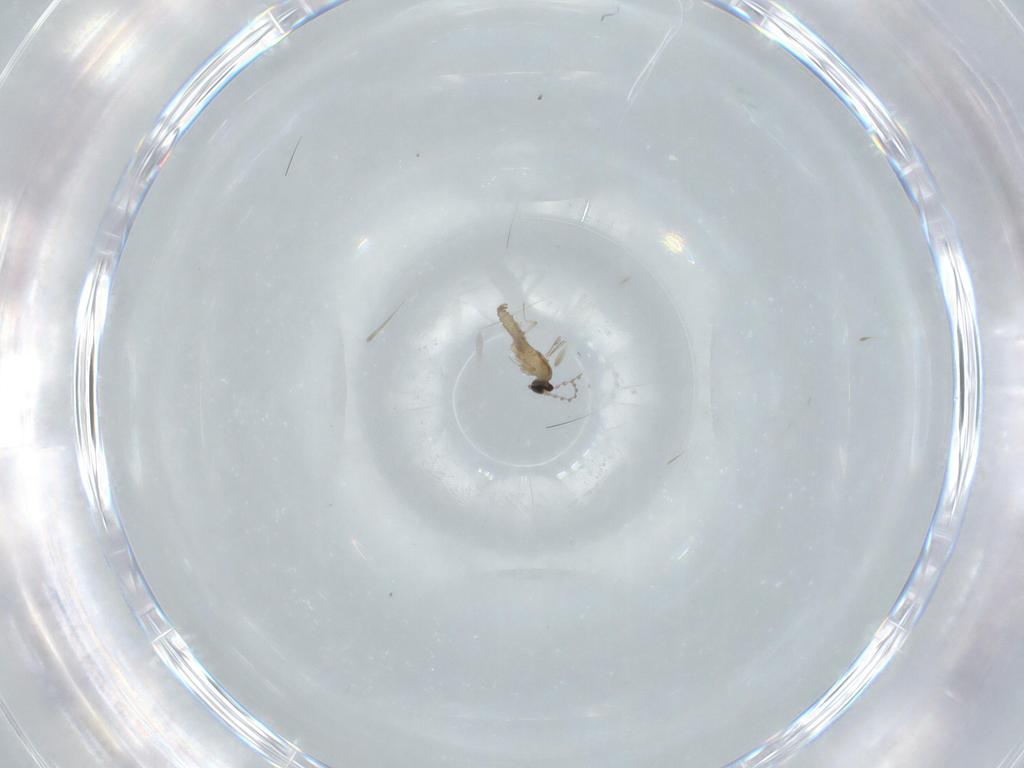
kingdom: Animalia
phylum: Arthropoda
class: Insecta
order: Diptera
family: Cecidomyiidae
